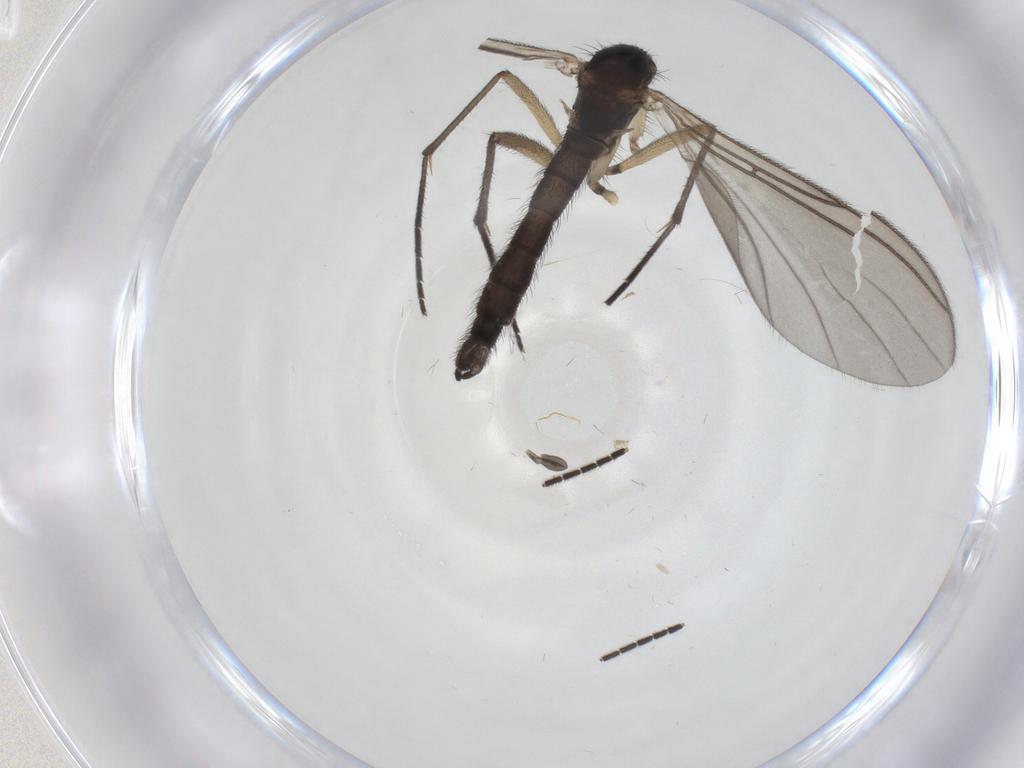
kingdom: Animalia
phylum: Arthropoda
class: Insecta
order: Diptera
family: Sciaridae
